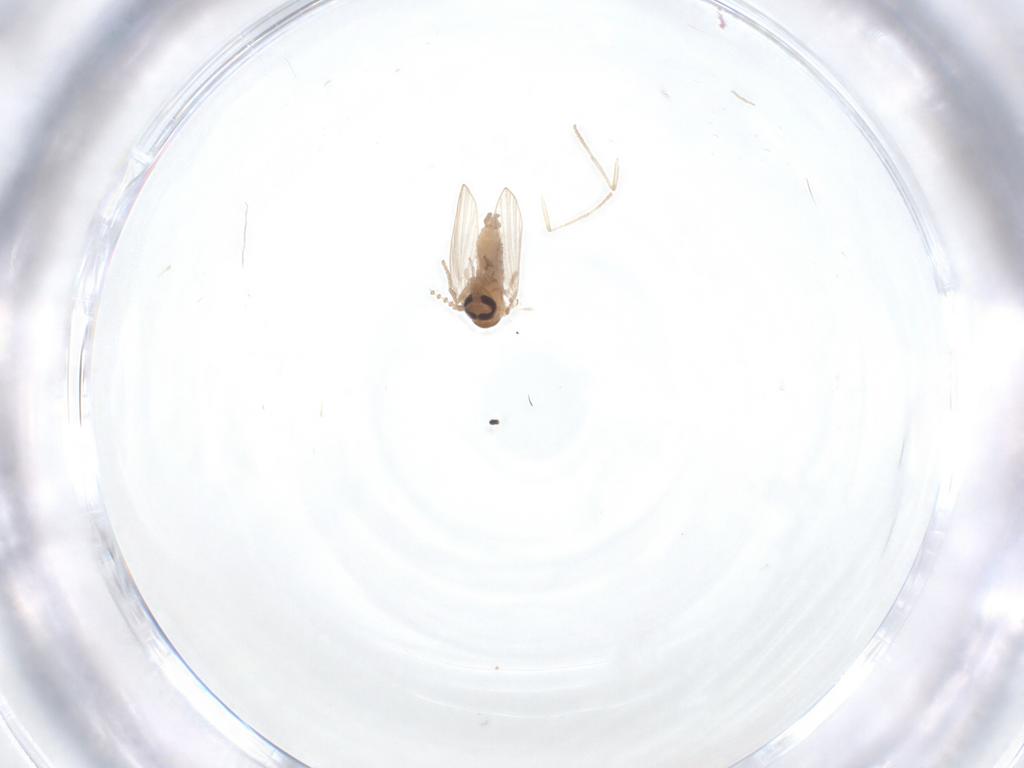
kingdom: Animalia
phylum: Arthropoda
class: Insecta
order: Diptera
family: Psychodidae
